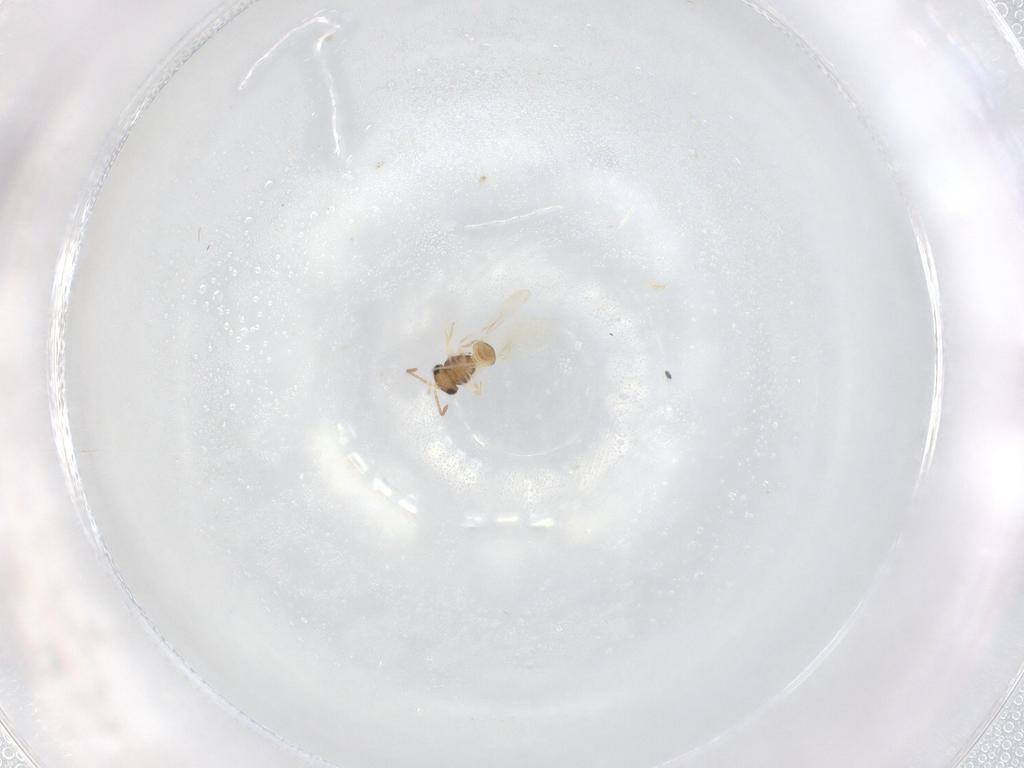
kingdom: Animalia
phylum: Arthropoda
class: Insecta
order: Hymenoptera
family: Scelionidae
